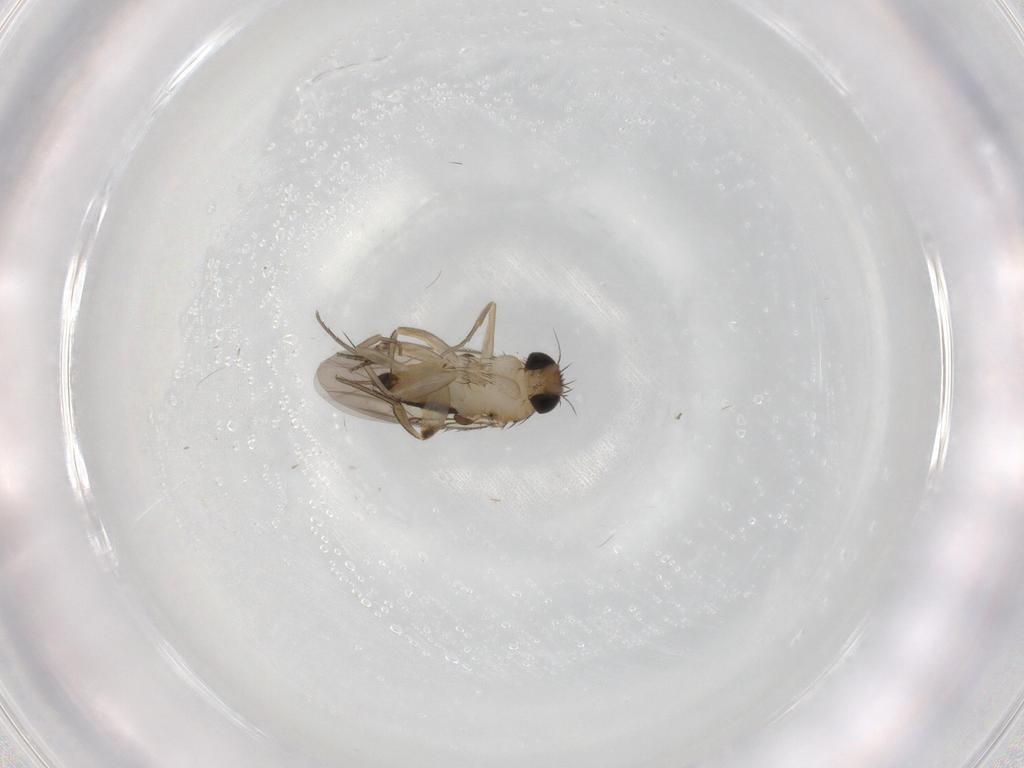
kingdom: Animalia
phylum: Arthropoda
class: Insecta
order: Diptera
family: Phoridae
